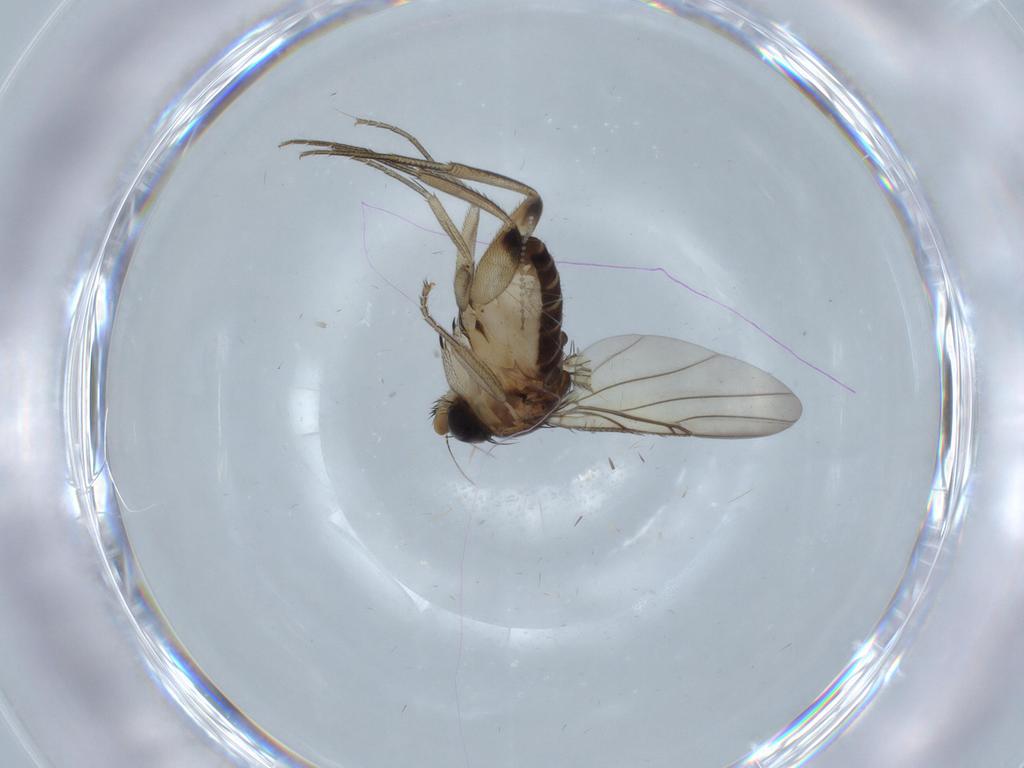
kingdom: Animalia
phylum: Arthropoda
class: Insecta
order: Diptera
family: Phoridae
